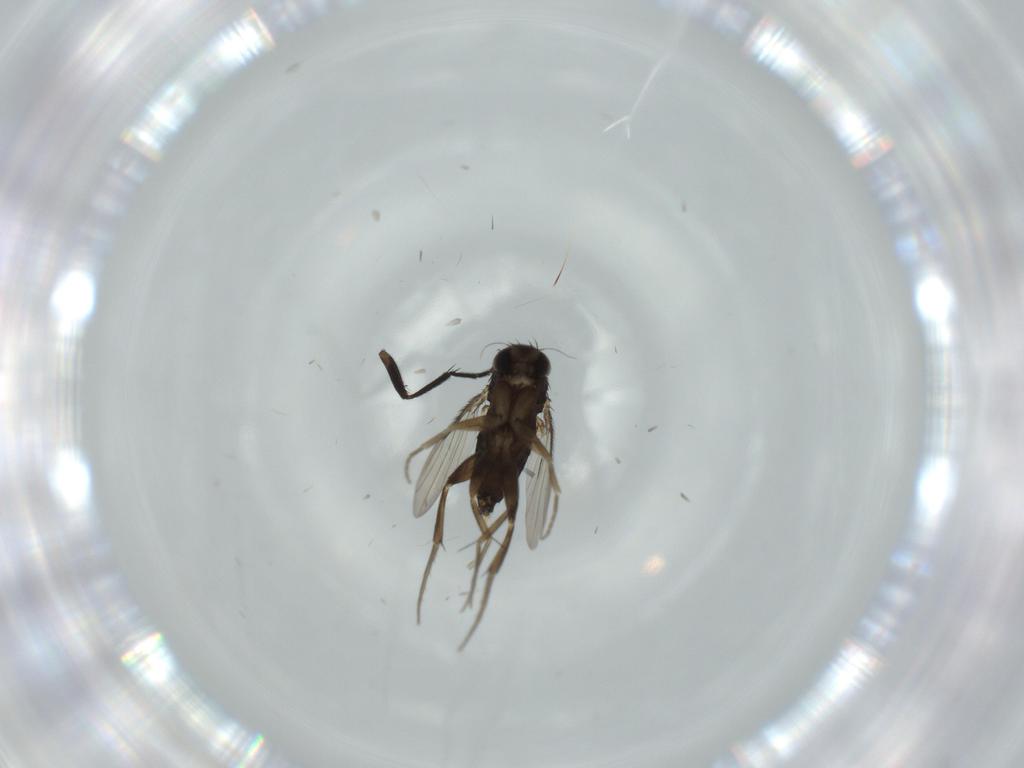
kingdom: Animalia
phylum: Arthropoda
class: Insecta
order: Diptera
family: Phoridae
